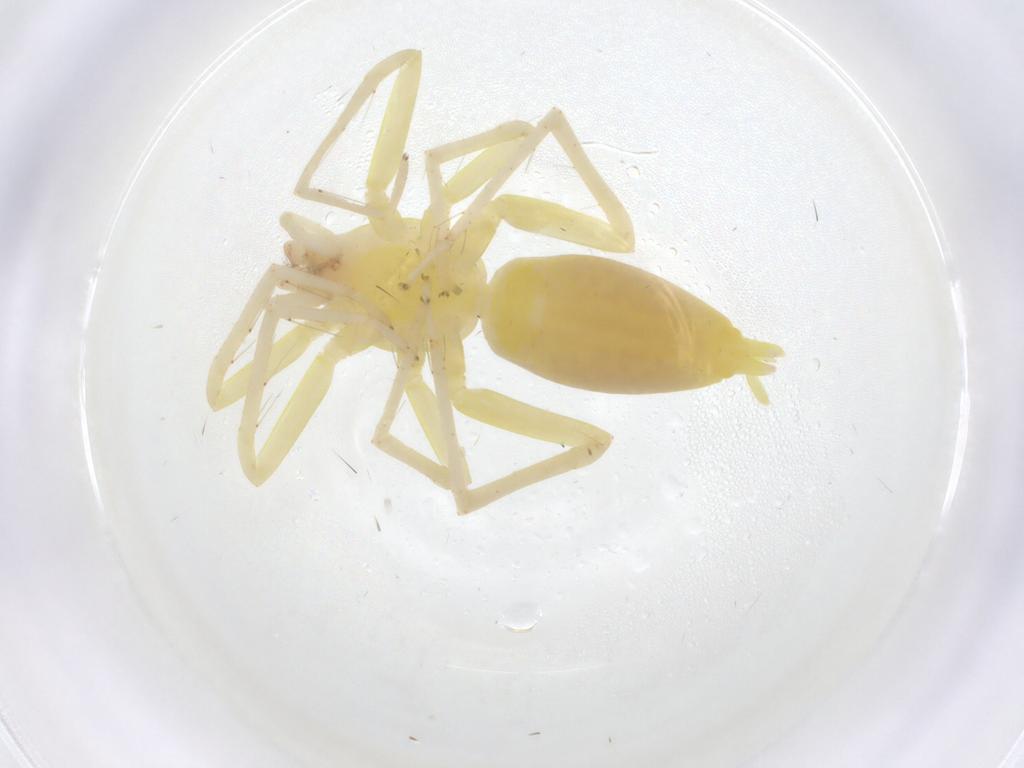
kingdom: Animalia
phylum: Arthropoda
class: Arachnida
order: Araneae
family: Clubionidae
